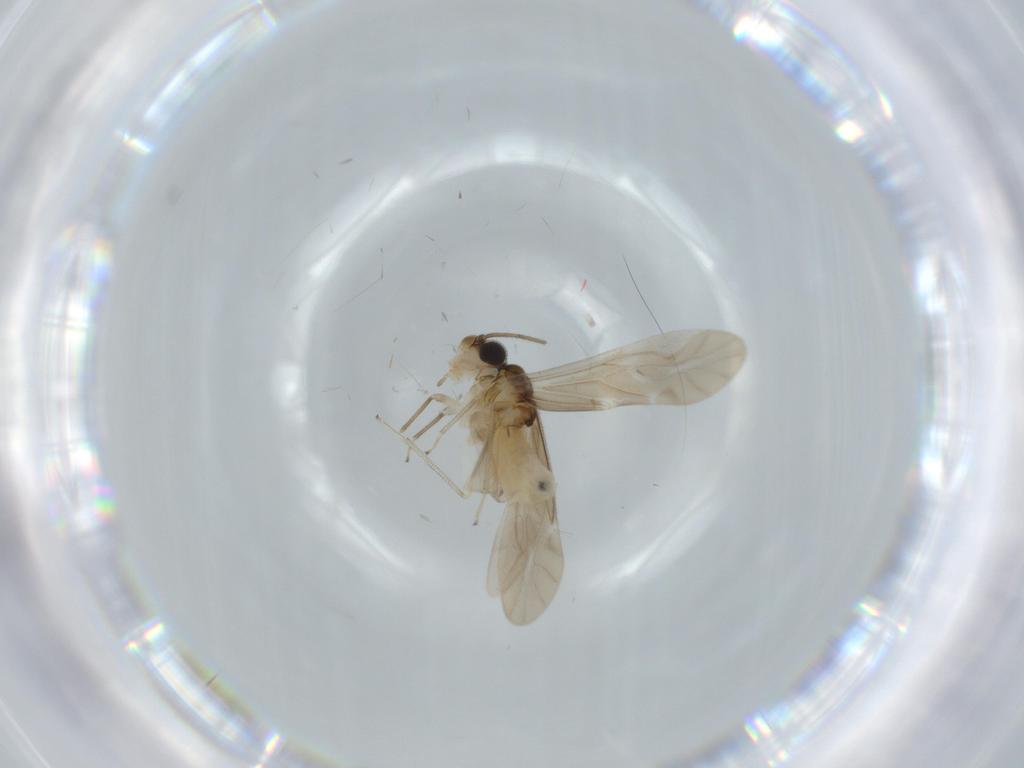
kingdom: Animalia
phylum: Arthropoda
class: Insecta
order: Psocodea
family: Caeciliusidae
